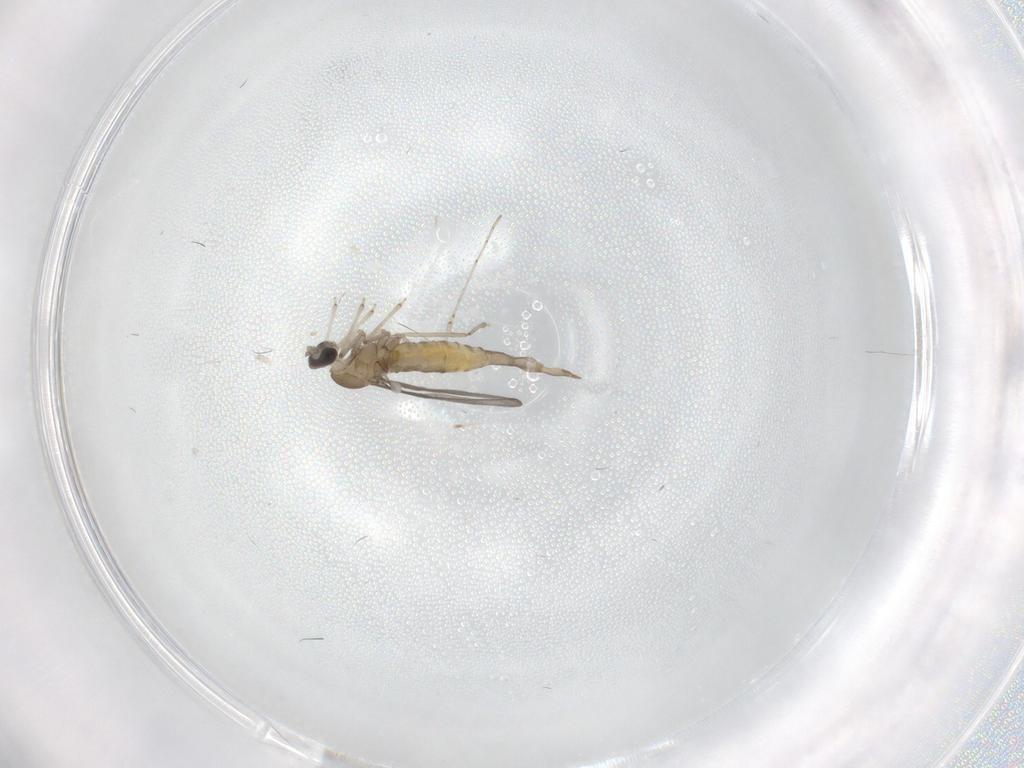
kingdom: Animalia
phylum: Arthropoda
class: Insecta
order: Diptera
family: Cecidomyiidae
